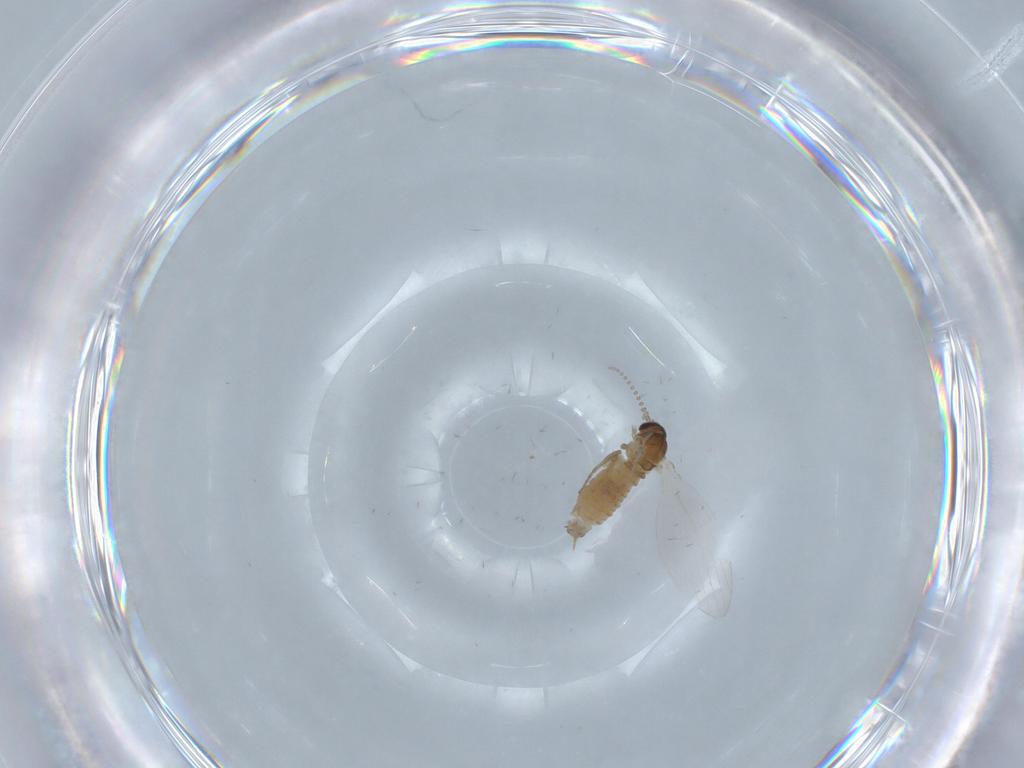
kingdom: Animalia
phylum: Arthropoda
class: Insecta
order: Diptera
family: Psychodidae
